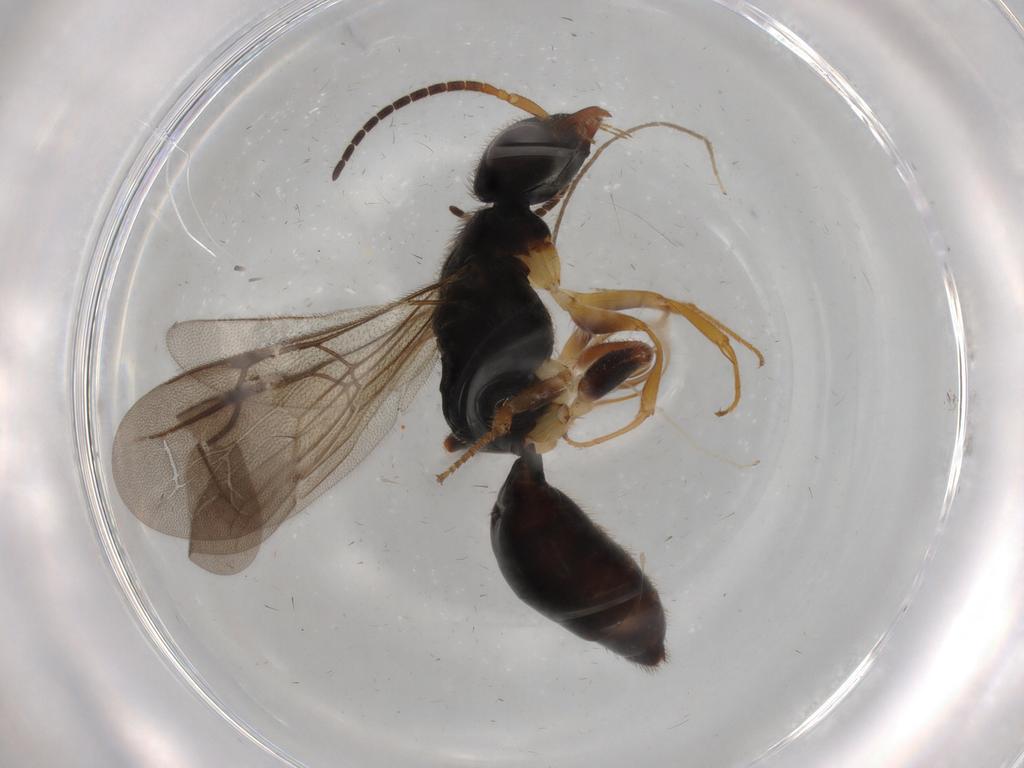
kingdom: Animalia
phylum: Arthropoda
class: Insecta
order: Hymenoptera
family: Bethylidae
